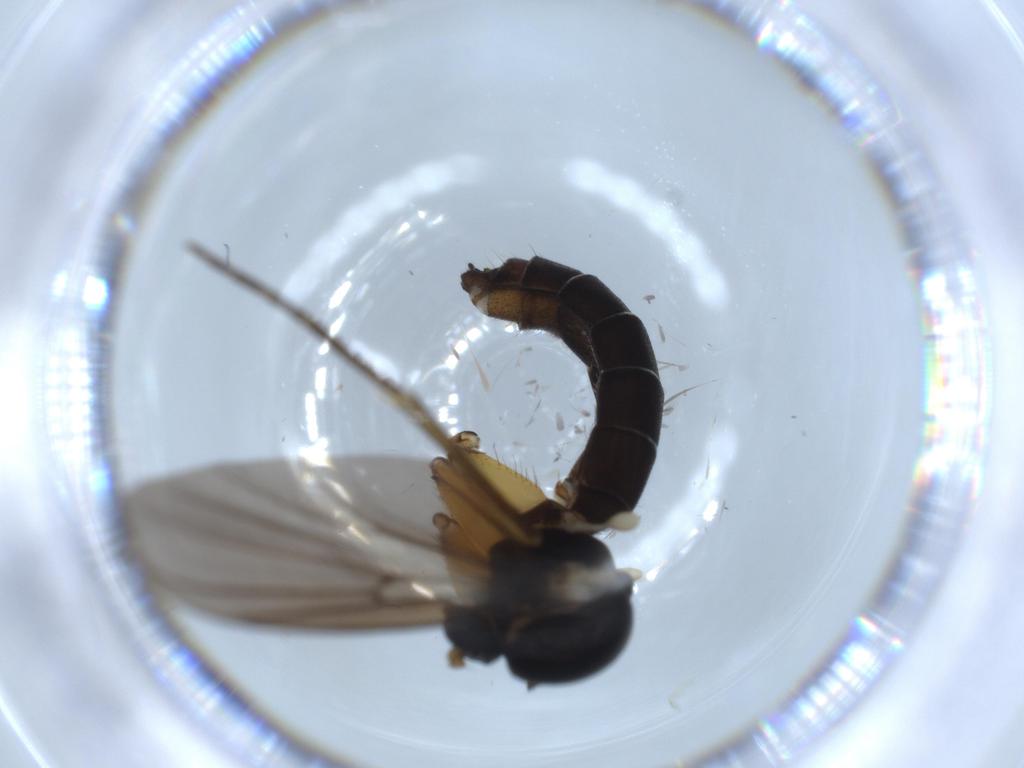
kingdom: Animalia
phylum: Arthropoda
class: Insecta
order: Diptera
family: Mycetophilidae
